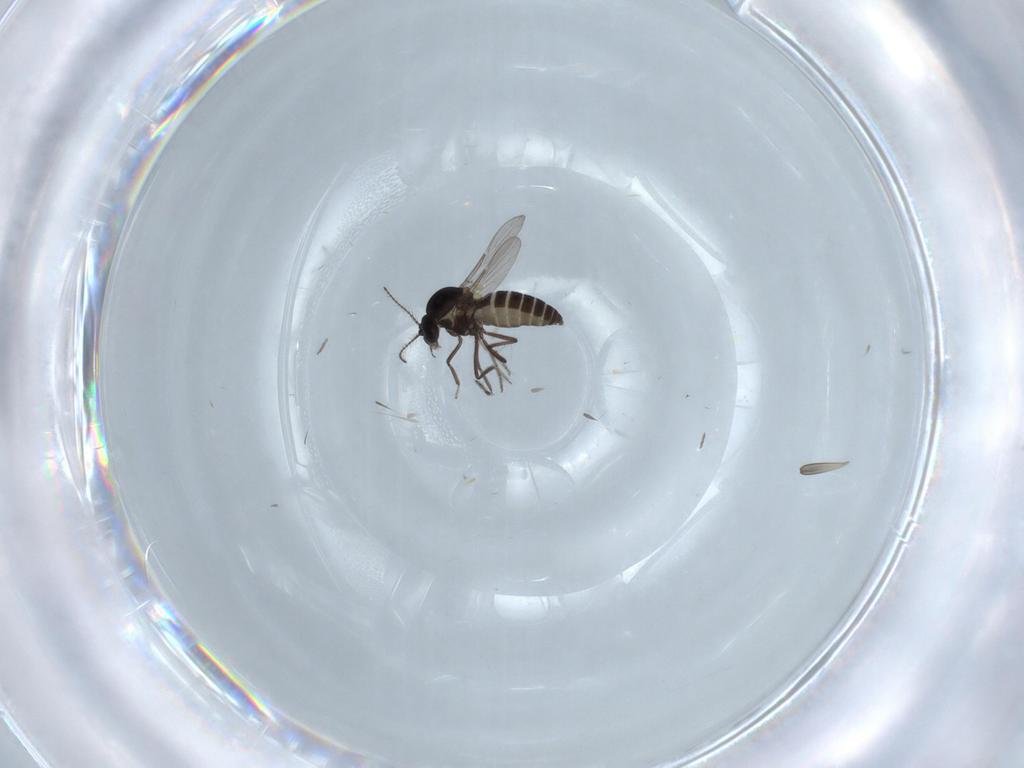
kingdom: Animalia
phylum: Arthropoda
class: Insecta
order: Diptera
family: Ceratopogonidae
